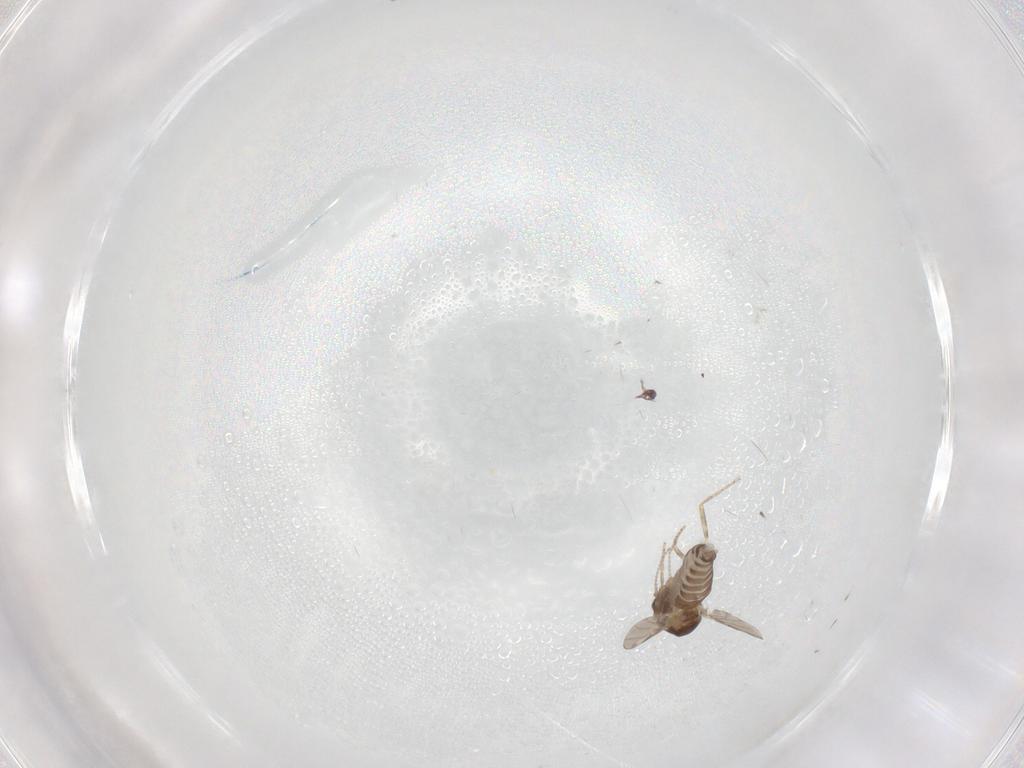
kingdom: Animalia
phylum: Arthropoda
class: Insecta
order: Diptera
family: Ceratopogonidae
